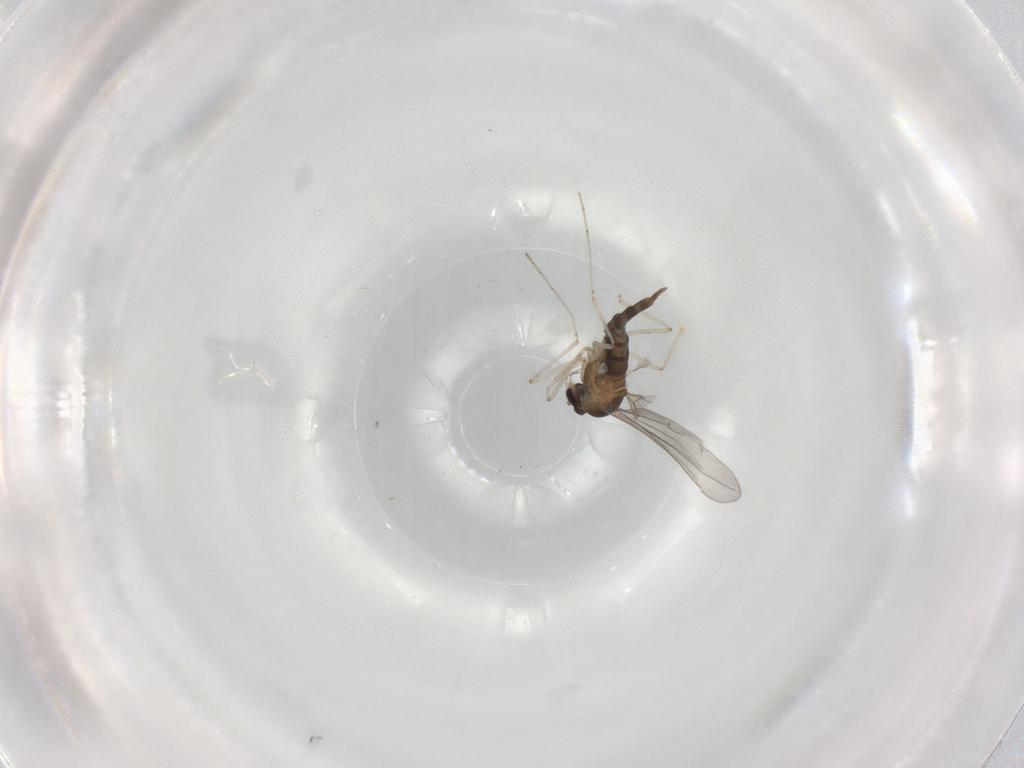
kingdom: Animalia
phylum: Arthropoda
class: Insecta
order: Diptera
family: Cecidomyiidae
